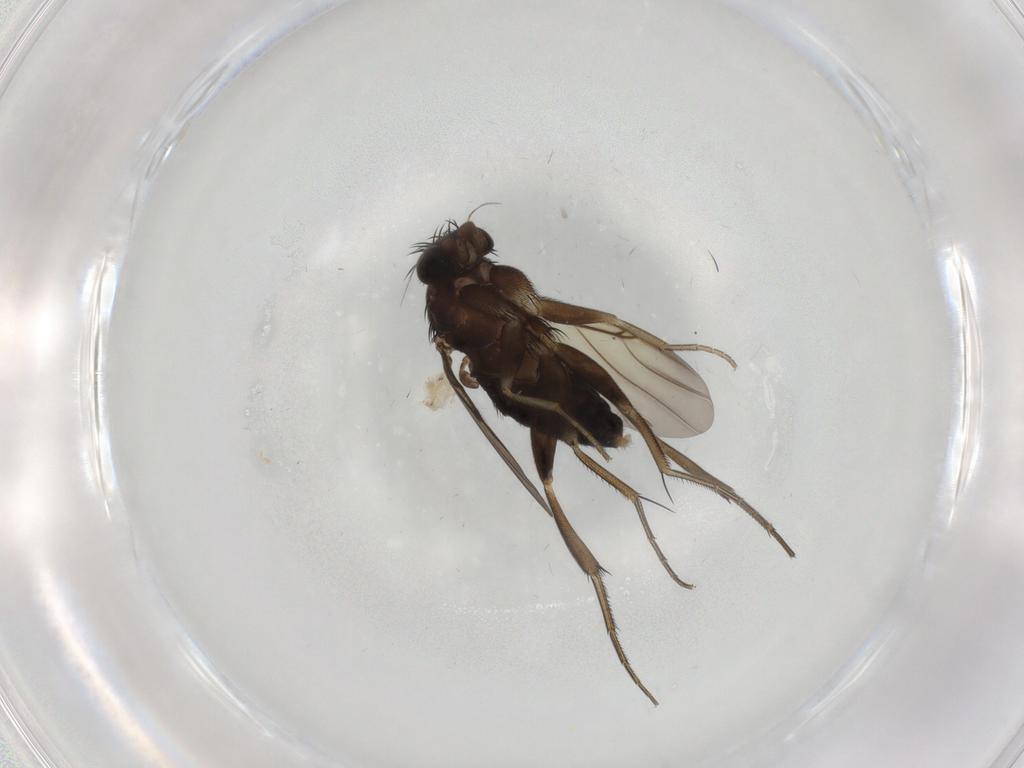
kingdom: Animalia
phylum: Arthropoda
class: Insecta
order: Diptera
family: Phoridae
